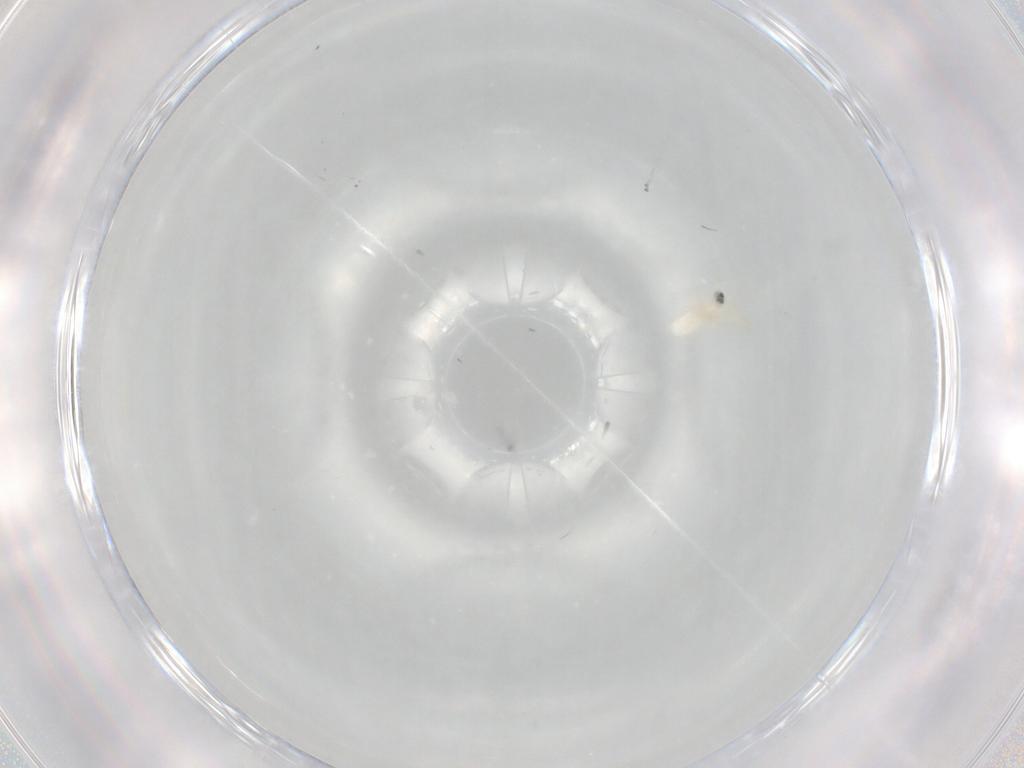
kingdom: Animalia
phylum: Arthropoda
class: Insecta
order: Diptera
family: Cecidomyiidae
